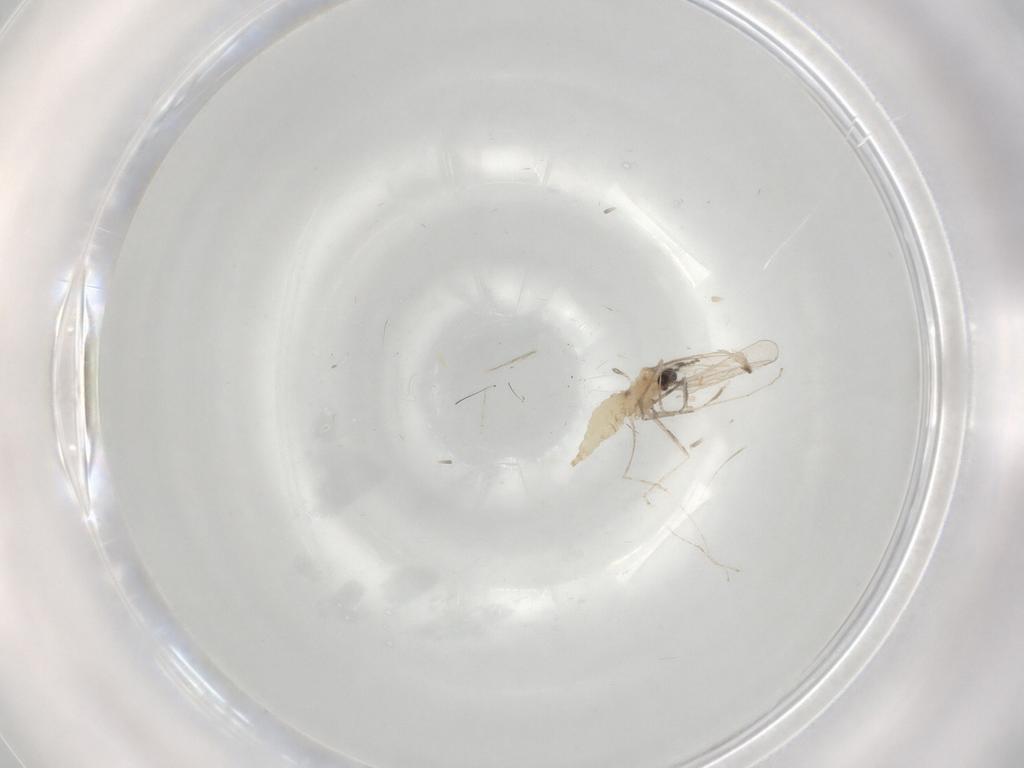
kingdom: Animalia
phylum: Arthropoda
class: Insecta
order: Diptera
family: Cecidomyiidae
